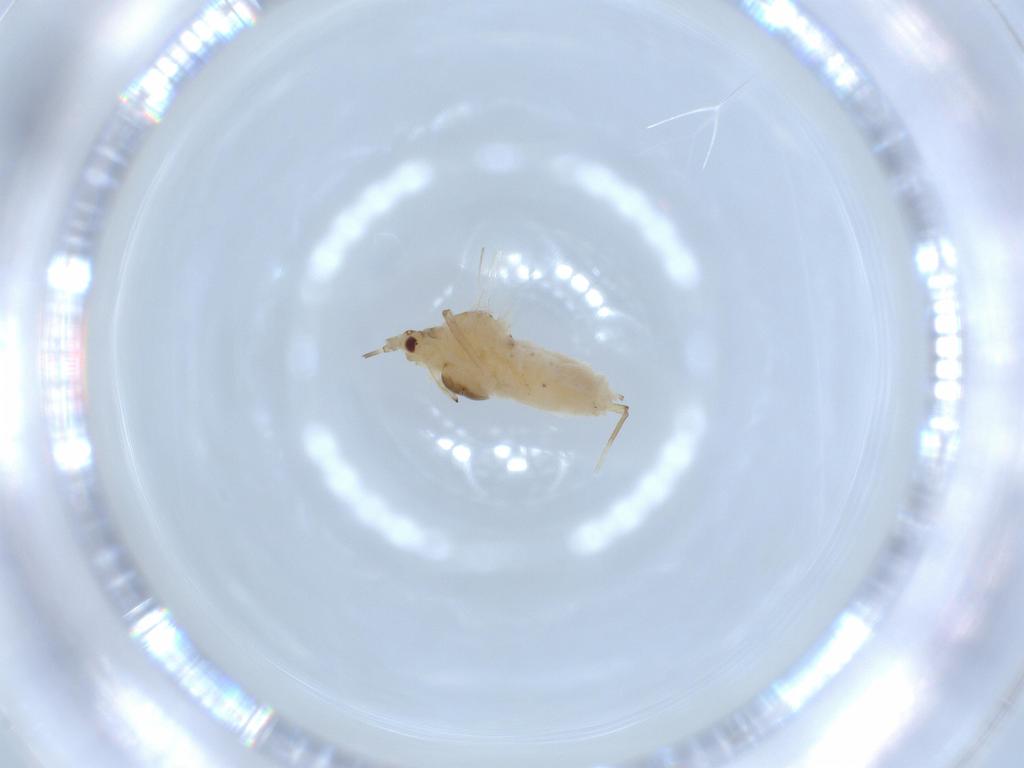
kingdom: Animalia
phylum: Arthropoda
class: Insecta
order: Hemiptera
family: Aphididae
